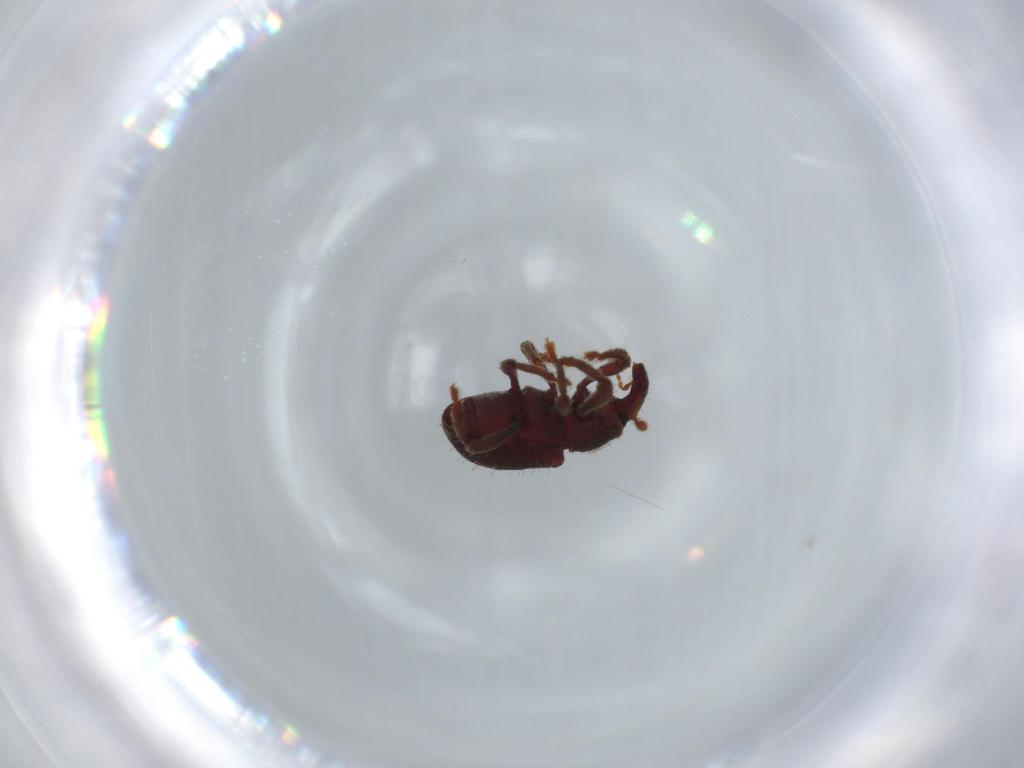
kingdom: Animalia
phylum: Arthropoda
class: Insecta
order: Coleoptera
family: Curculionidae
